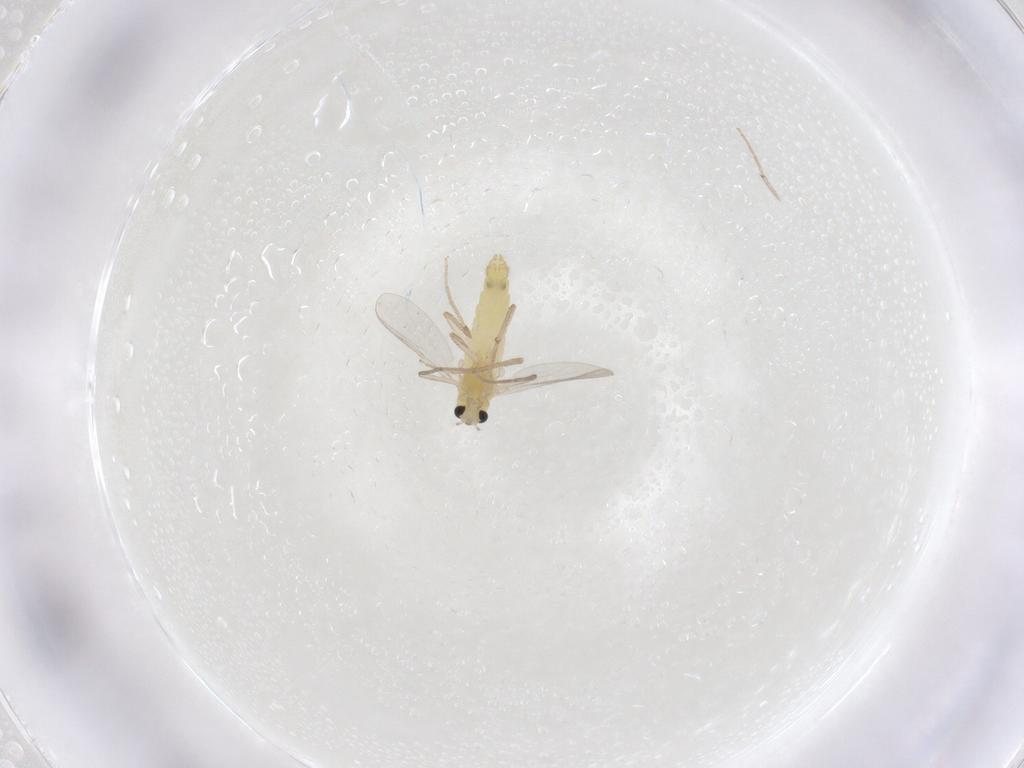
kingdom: Animalia
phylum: Arthropoda
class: Insecta
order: Diptera
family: Chironomidae
